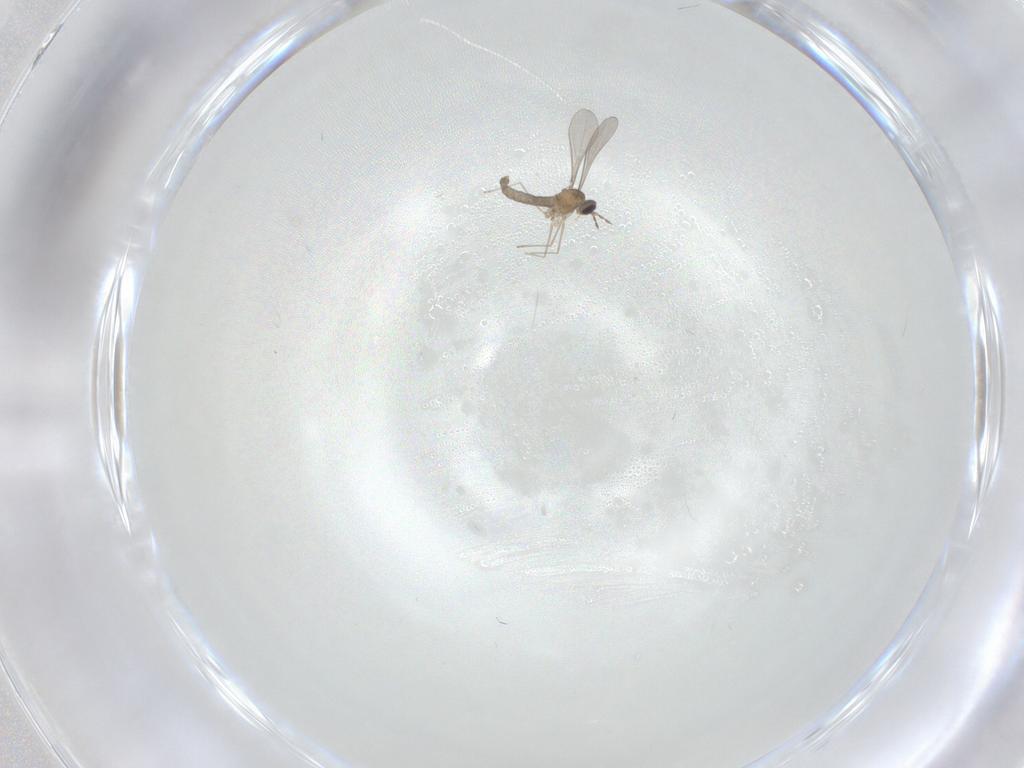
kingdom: Animalia
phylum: Arthropoda
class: Insecta
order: Diptera
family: Cecidomyiidae
